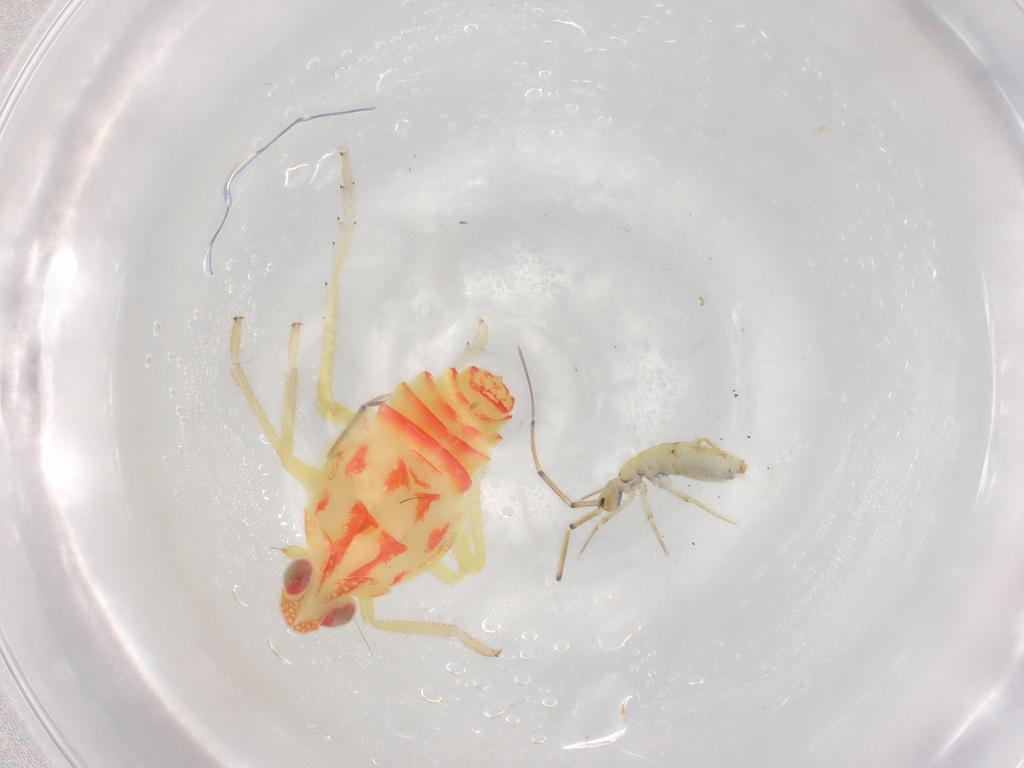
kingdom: Animalia
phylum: Arthropoda
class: Insecta
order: Hemiptera
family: Tropiduchidae
